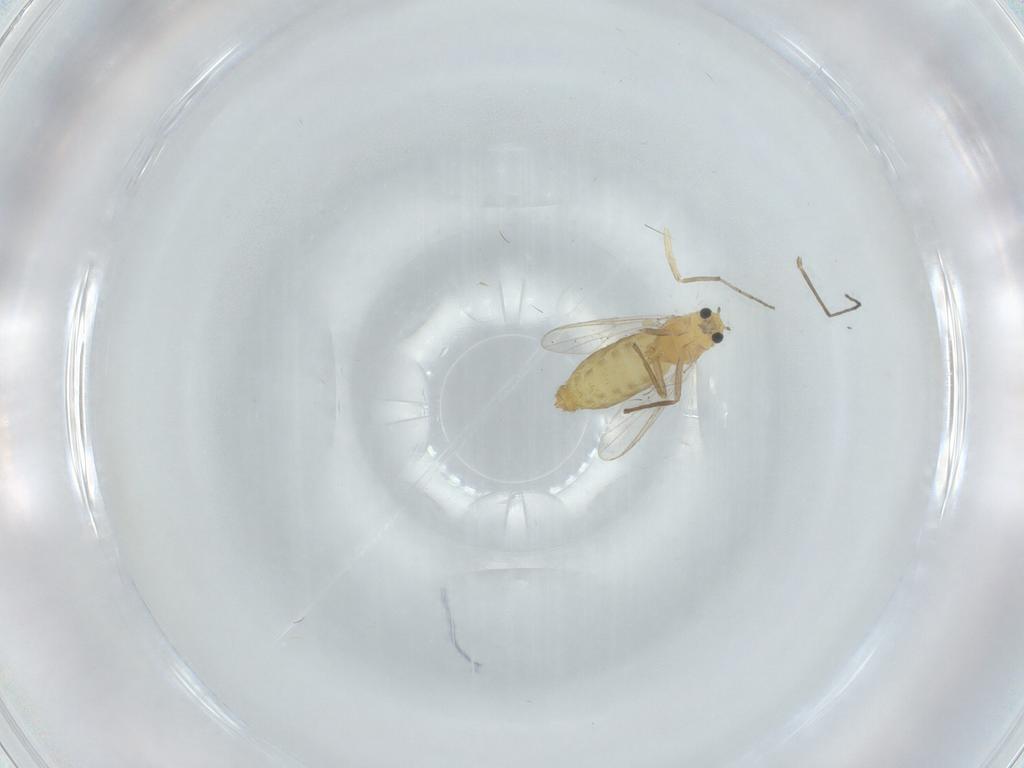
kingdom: Animalia
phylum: Arthropoda
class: Insecta
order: Diptera
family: Chironomidae
